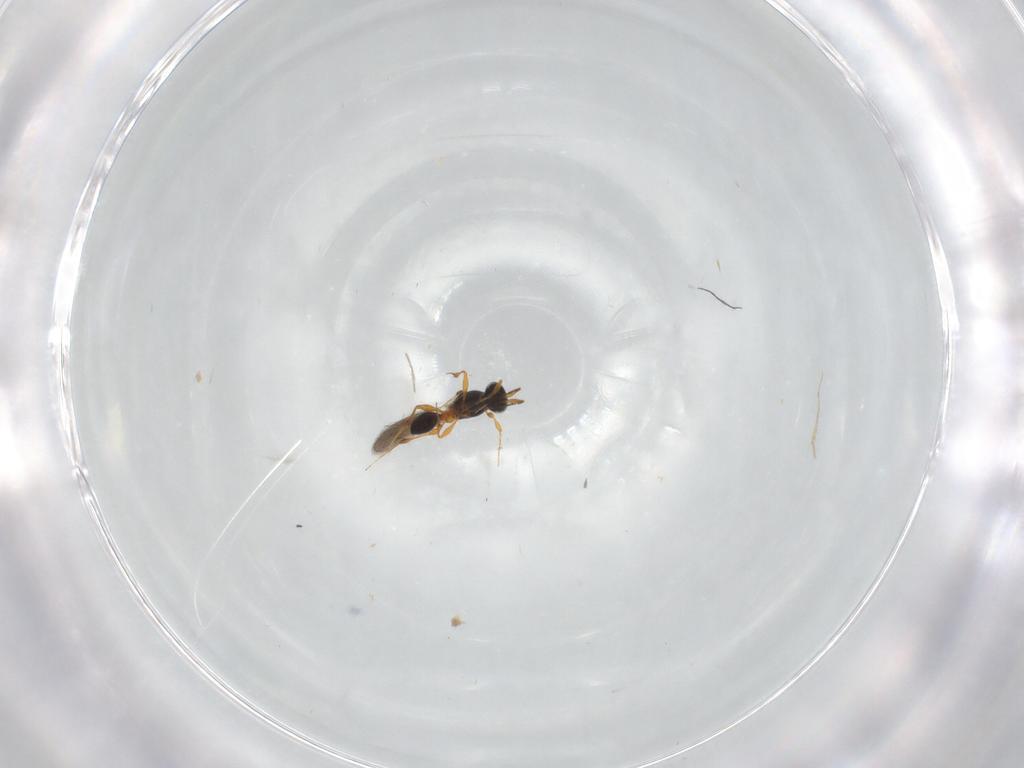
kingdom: Animalia
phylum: Arthropoda
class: Insecta
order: Hymenoptera
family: Platygastridae
